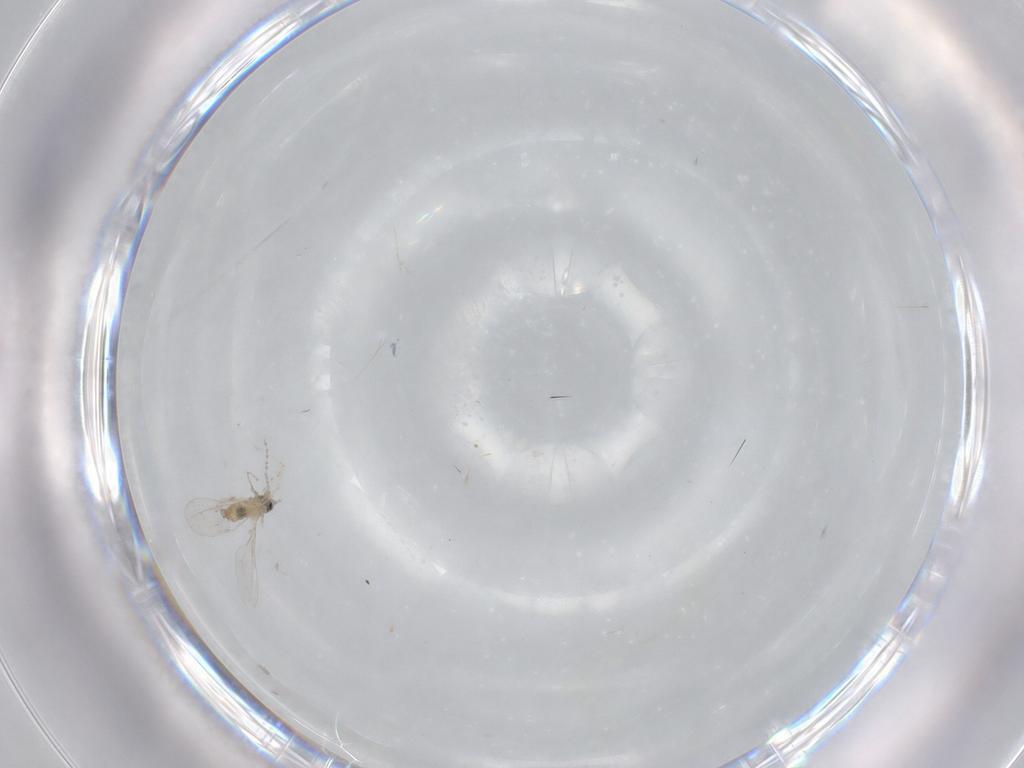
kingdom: Animalia
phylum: Arthropoda
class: Insecta
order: Diptera
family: Cecidomyiidae
